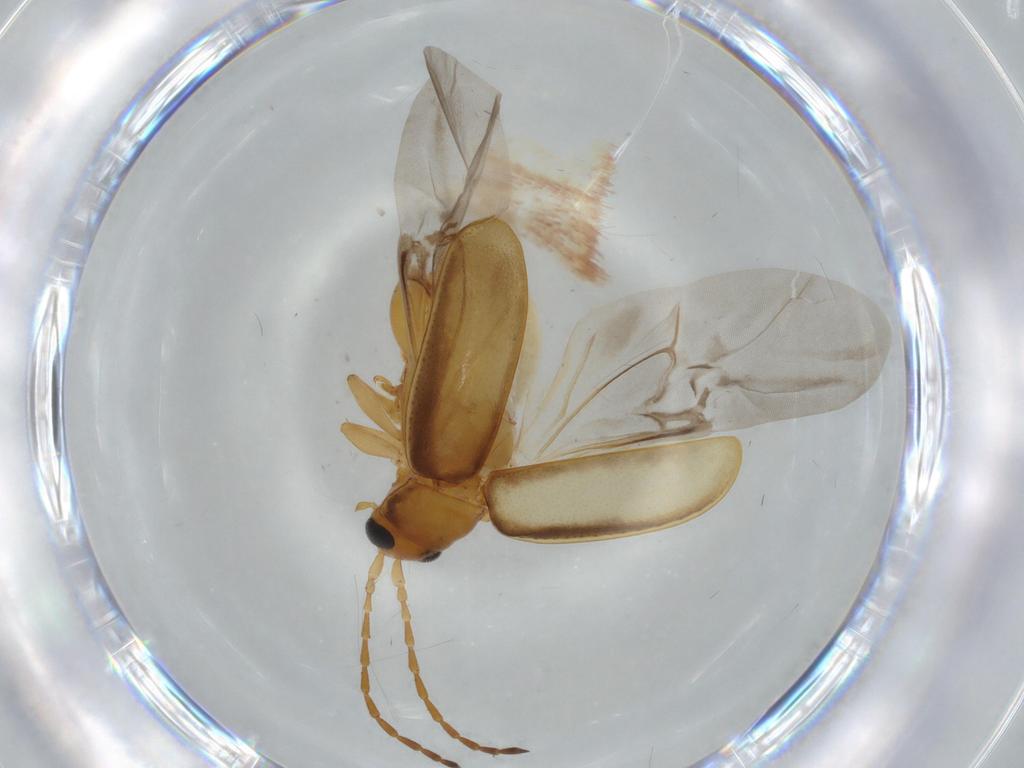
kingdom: Animalia
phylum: Arthropoda
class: Insecta
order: Coleoptera
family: Chrysomelidae
